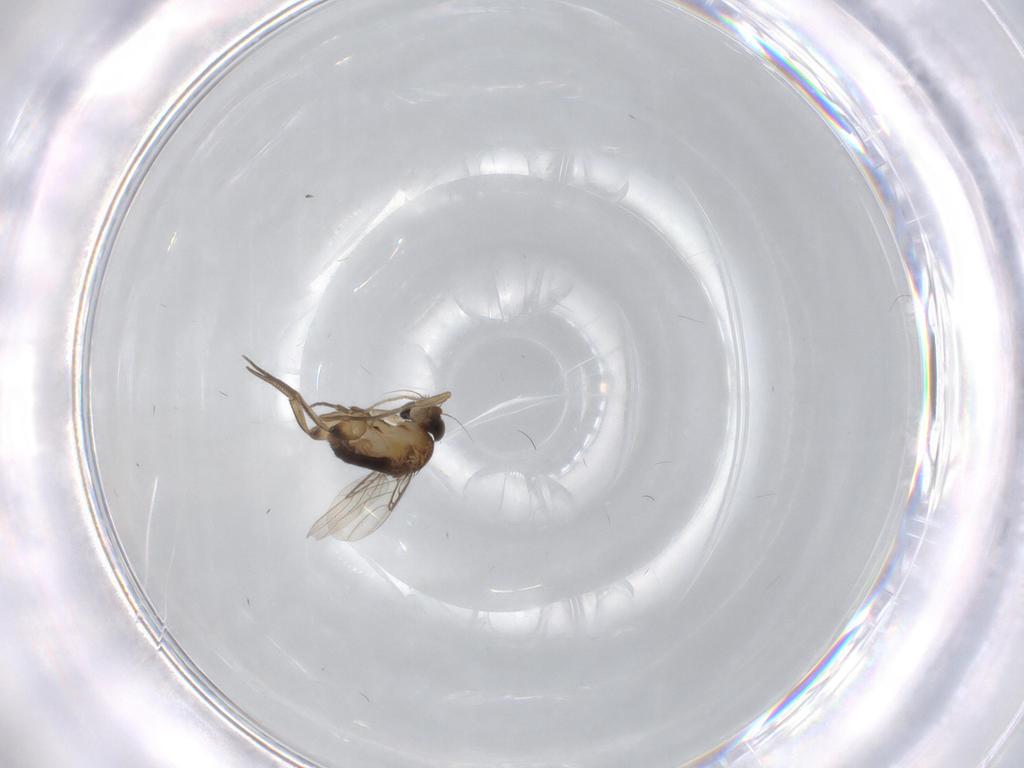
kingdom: Animalia
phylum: Arthropoda
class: Insecta
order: Diptera
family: Phoridae
